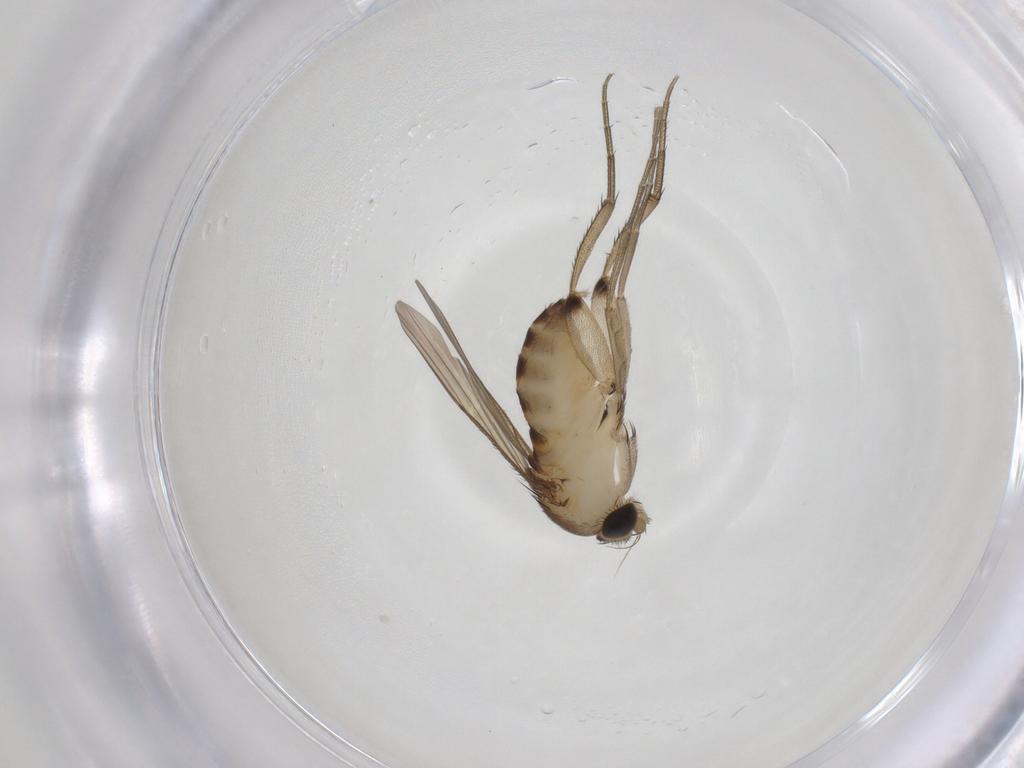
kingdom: Animalia
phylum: Arthropoda
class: Insecta
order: Diptera
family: Phoridae
